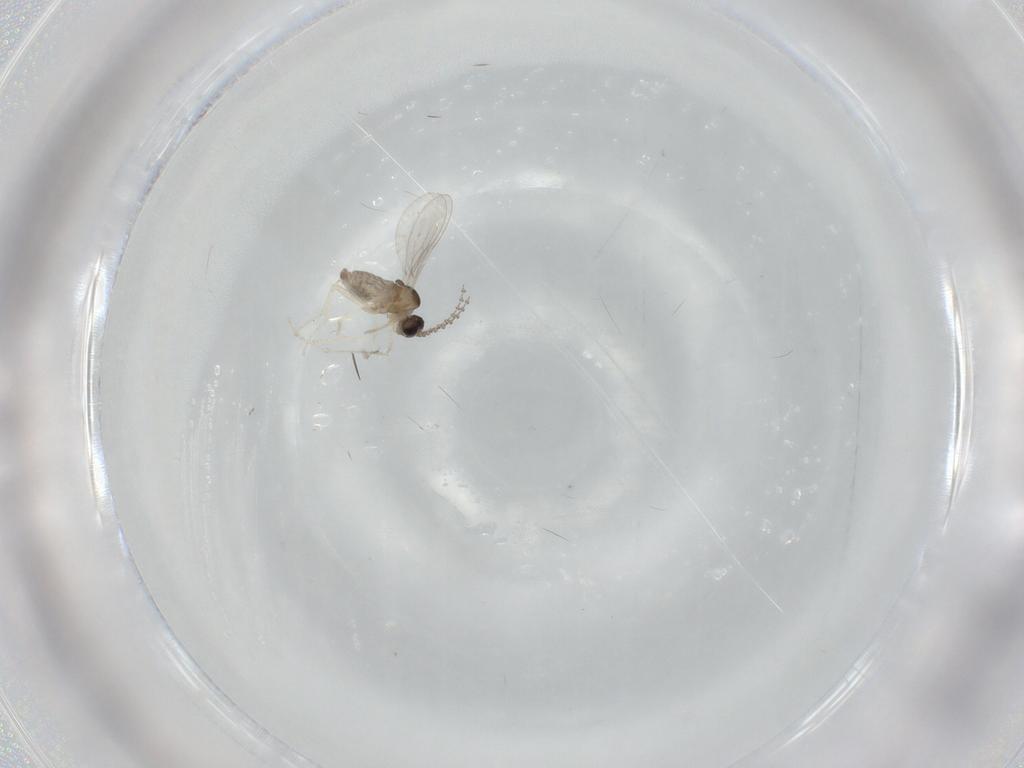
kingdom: Animalia
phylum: Arthropoda
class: Insecta
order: Diptera
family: Cecidomyiidae
